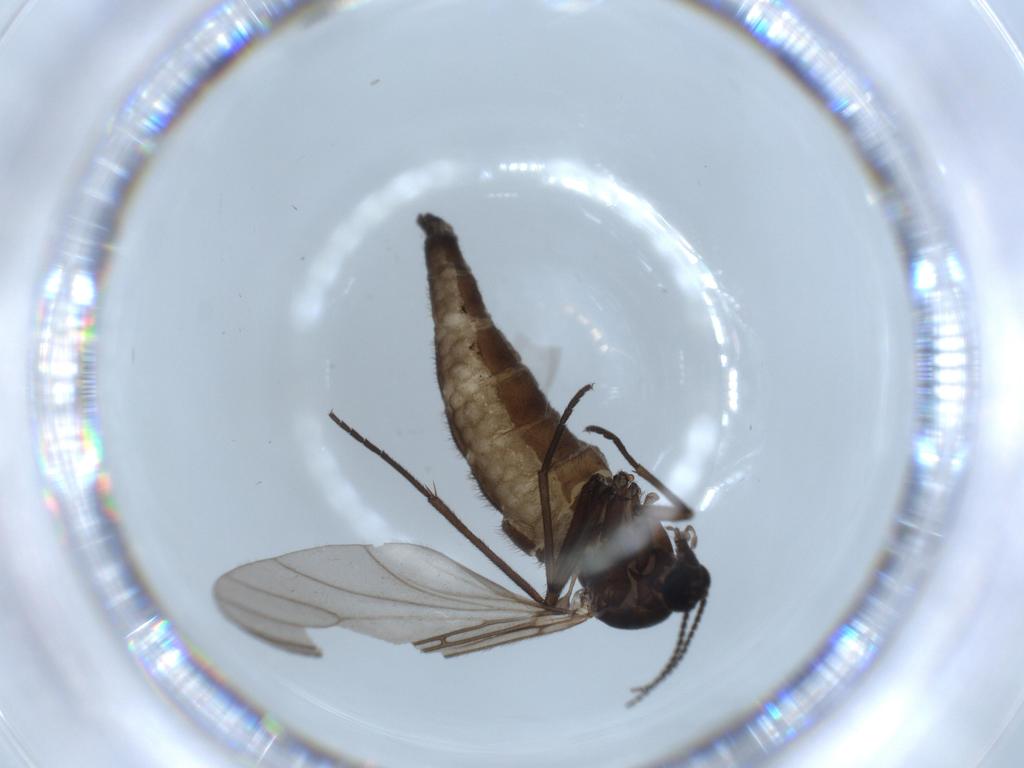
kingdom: Animalia
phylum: Arthropoda
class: Insecta
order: Diptera
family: Sciaridae
